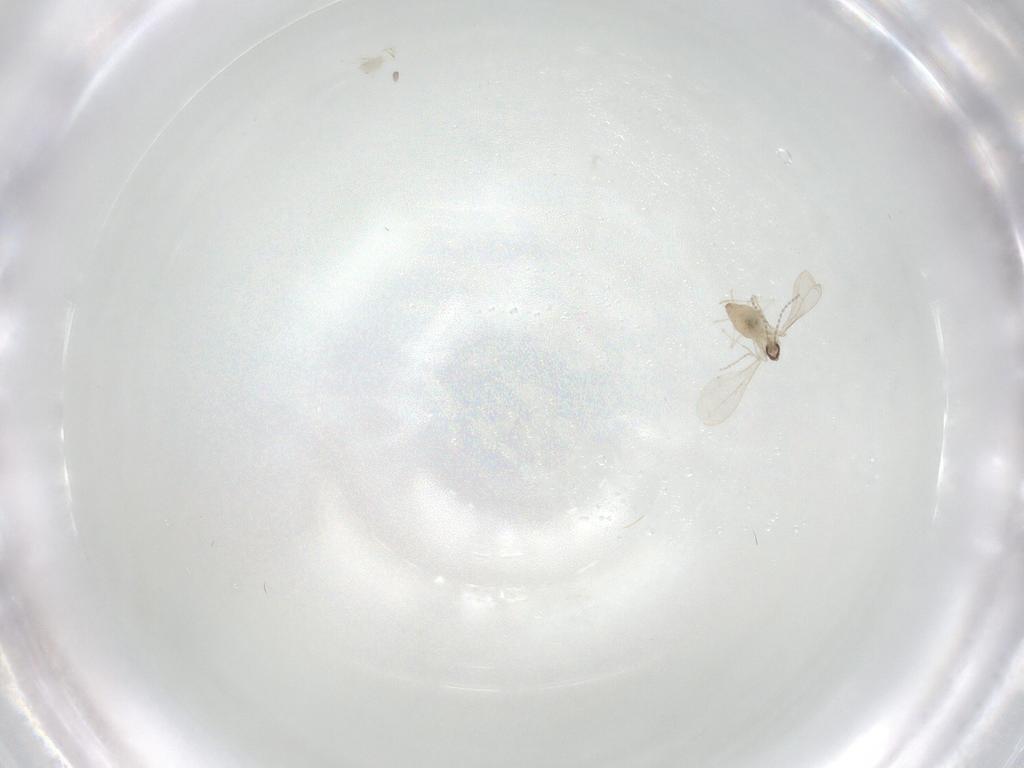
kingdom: Animalia
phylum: Arthropoda
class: Insecta
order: Diptera
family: Cecidomyiidae
